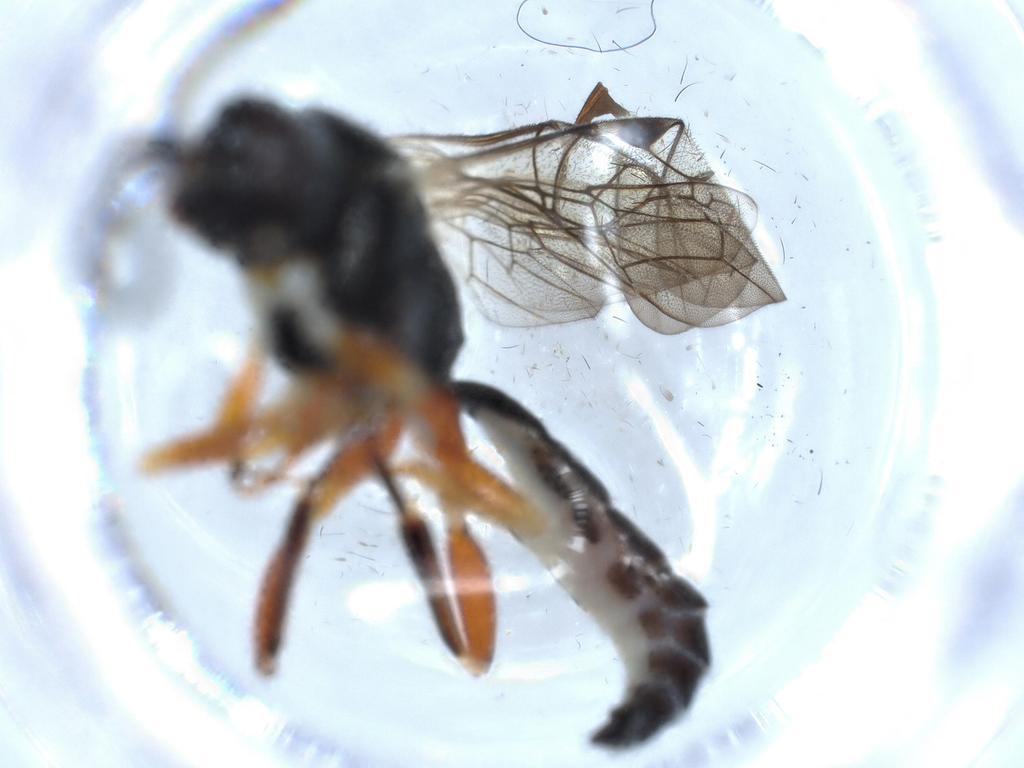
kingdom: Animalia
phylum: Arthropoda
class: Insecta
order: Hymenoptera
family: Ichneumonidae
